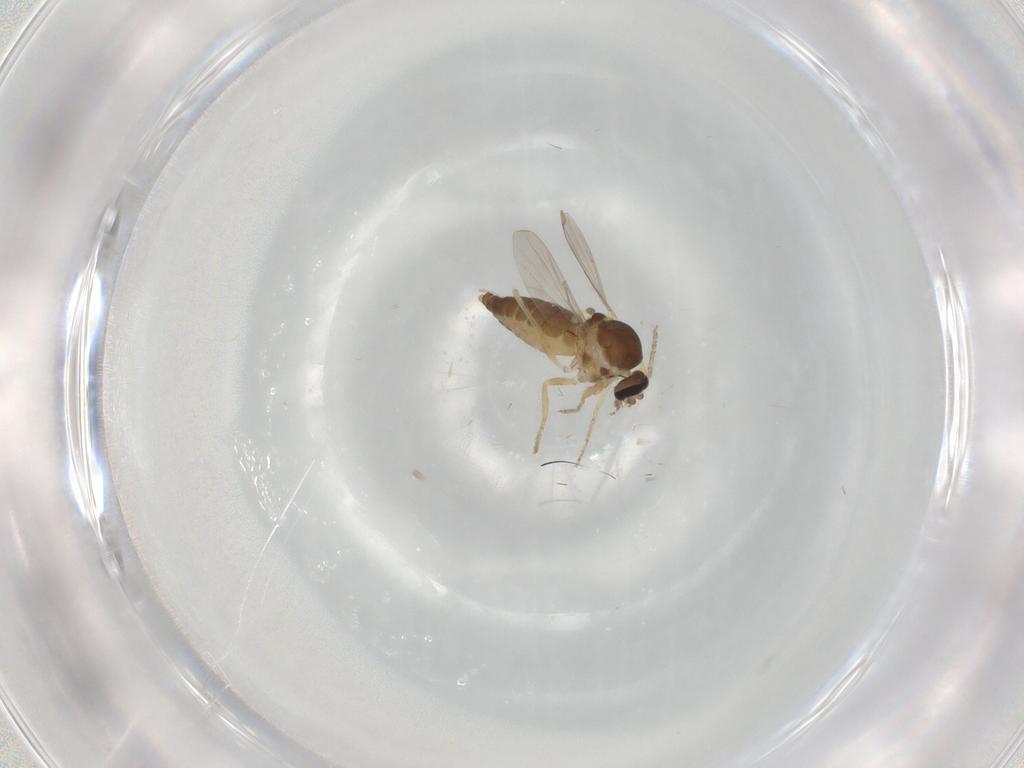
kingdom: Animalia
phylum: Arthropoda
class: Insecta
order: Diptera
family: Ceratopogonidae
